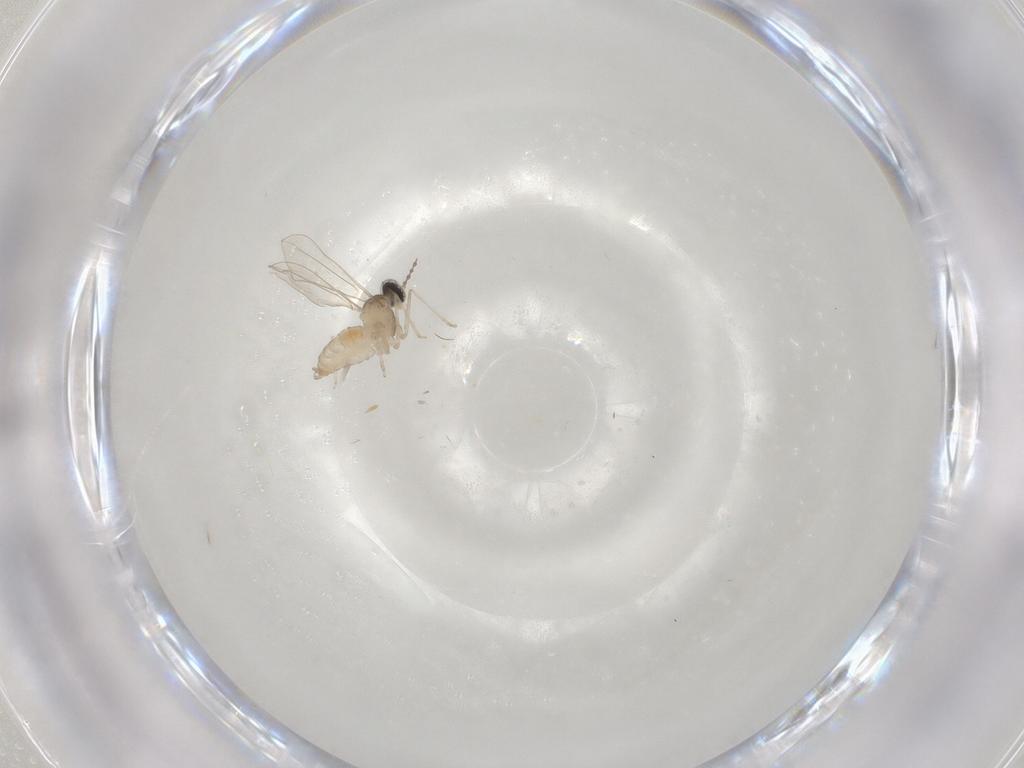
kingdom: Animalia
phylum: Arthropoda
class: Insecta
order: Diptera
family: Cecidomyiidae
